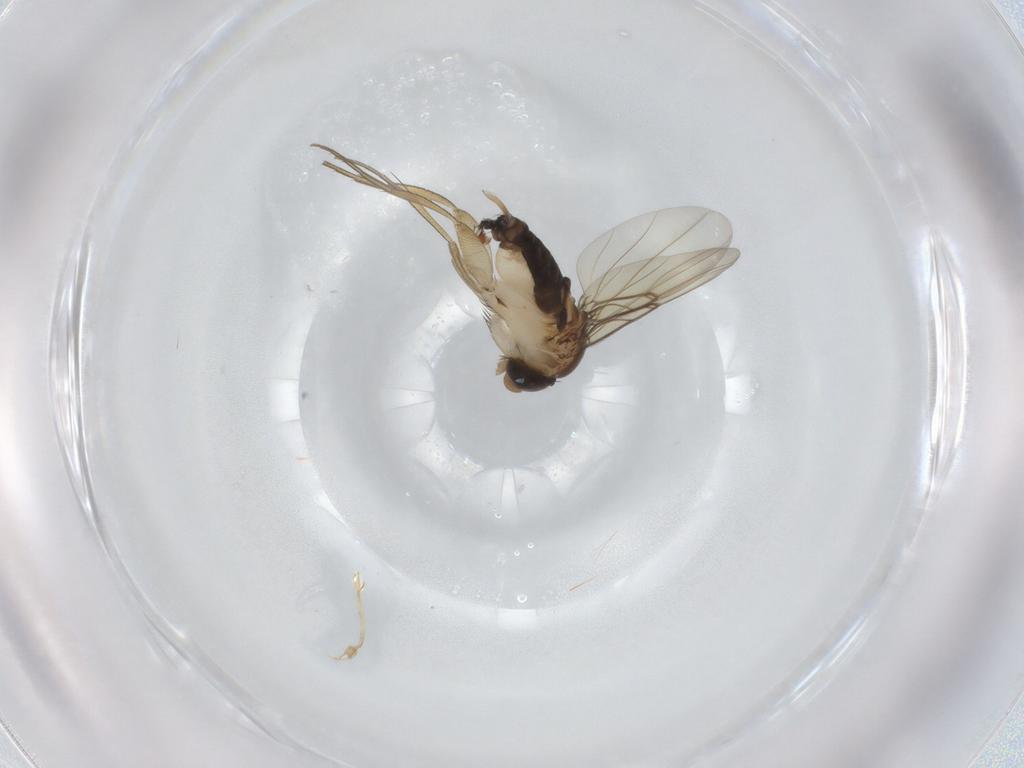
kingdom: Animalia
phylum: Arthropoda
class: Insecta
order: Diptera
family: Phoridae
